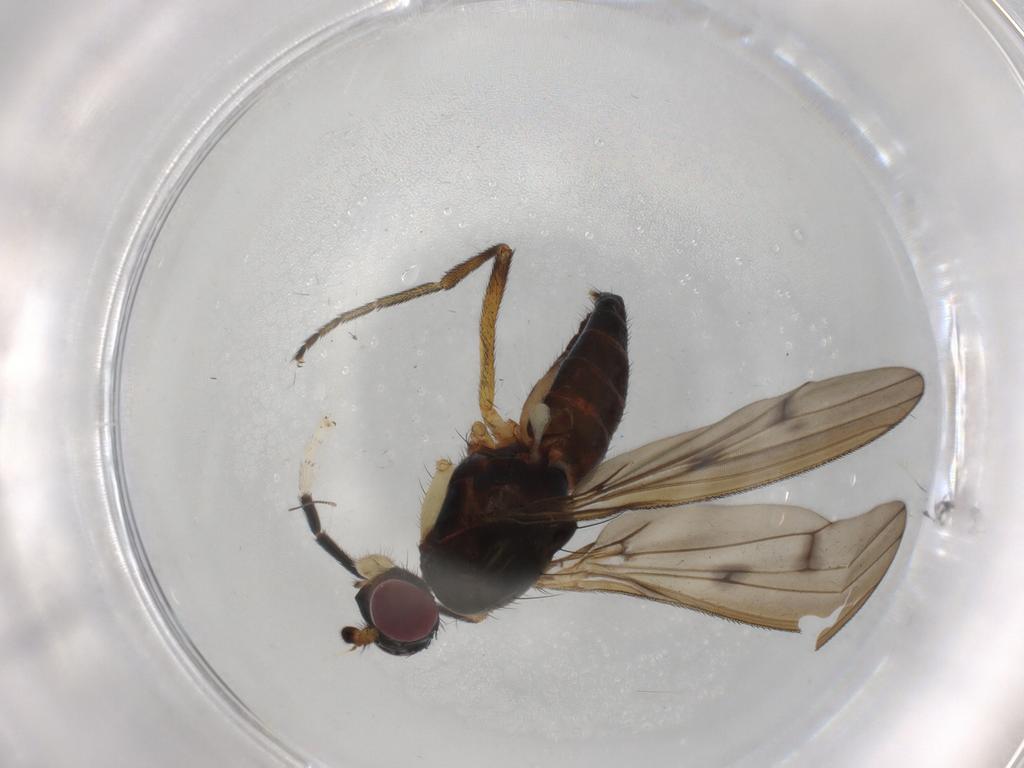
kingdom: Animalia
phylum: Arthropoda
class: Insecta
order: Diptera
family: Sciomyzidae
